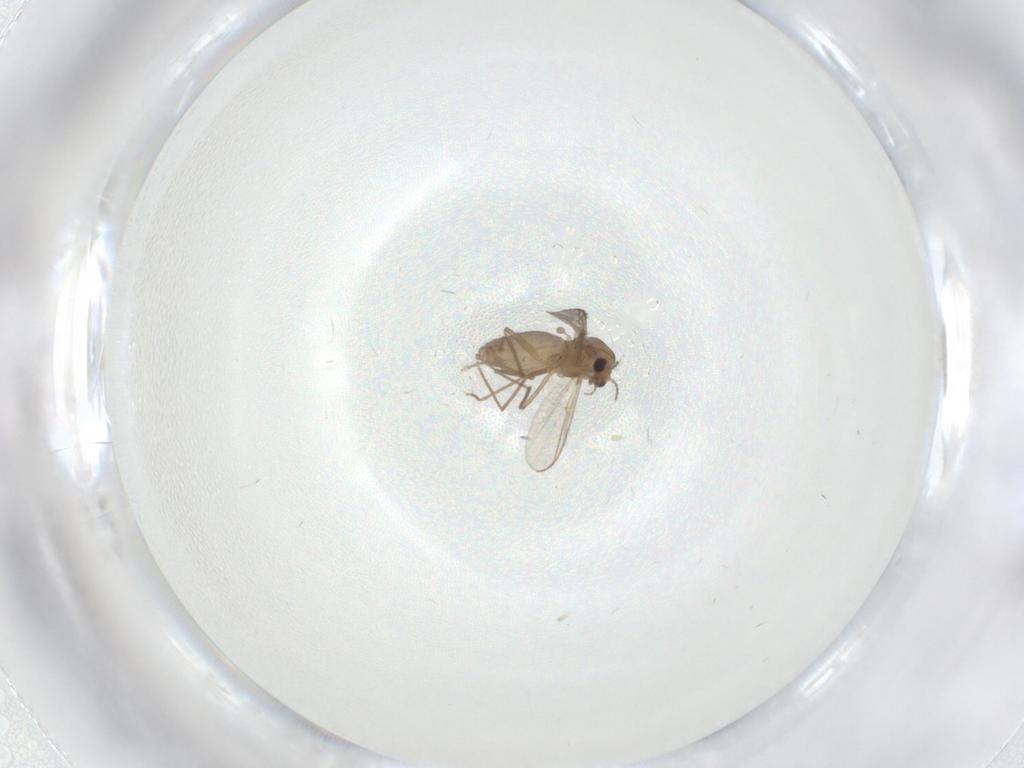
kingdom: Animalia
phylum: Arthropoda
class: Insecta
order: Diptera
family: Chironomidae
